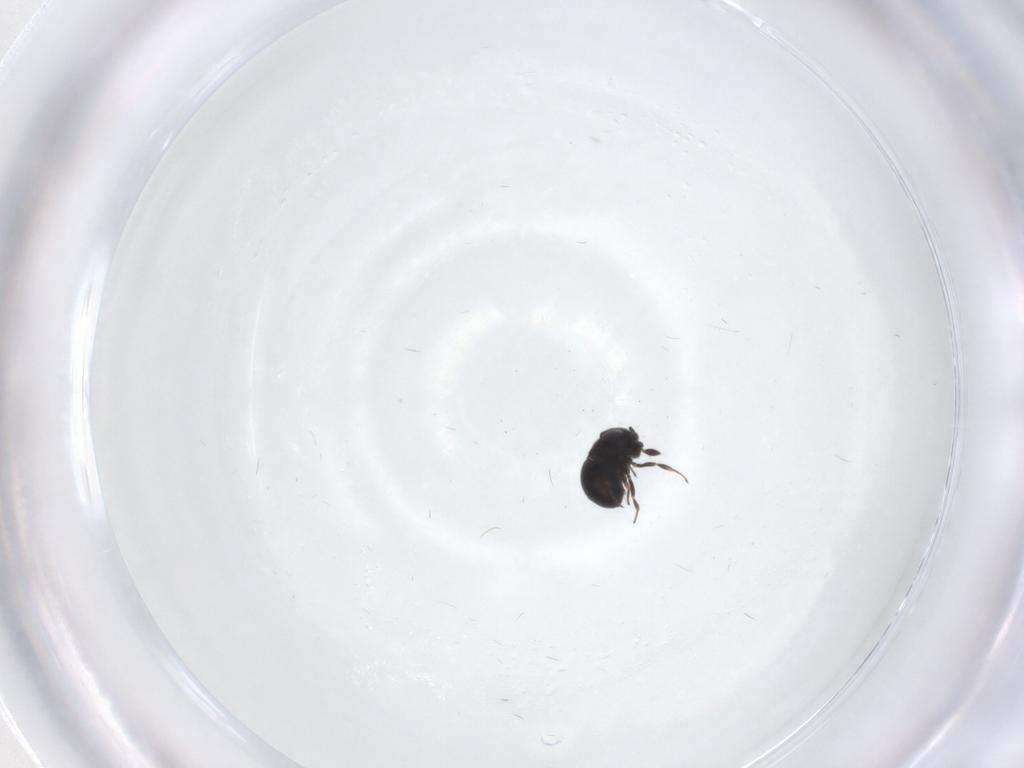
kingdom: Animalia
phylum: Arthropoda
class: Insecta
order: Hymenoptera
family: Scelionidae
